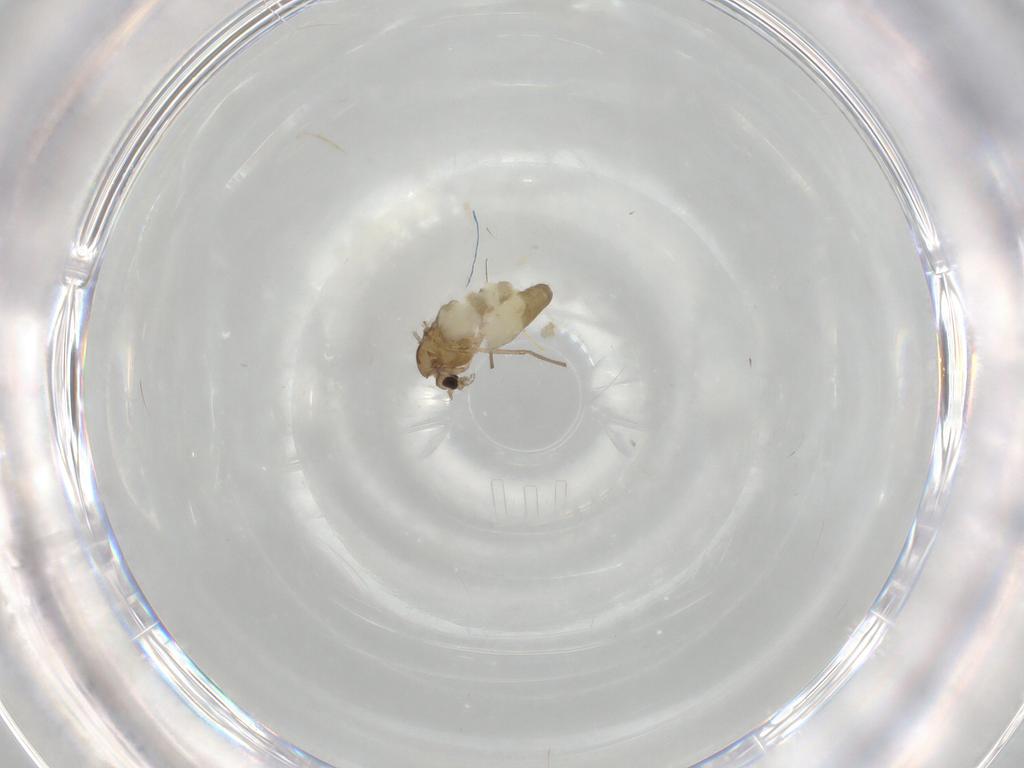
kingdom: Animalia
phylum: Arthropoda
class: Insecta
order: Diptera
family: Chironomidae
